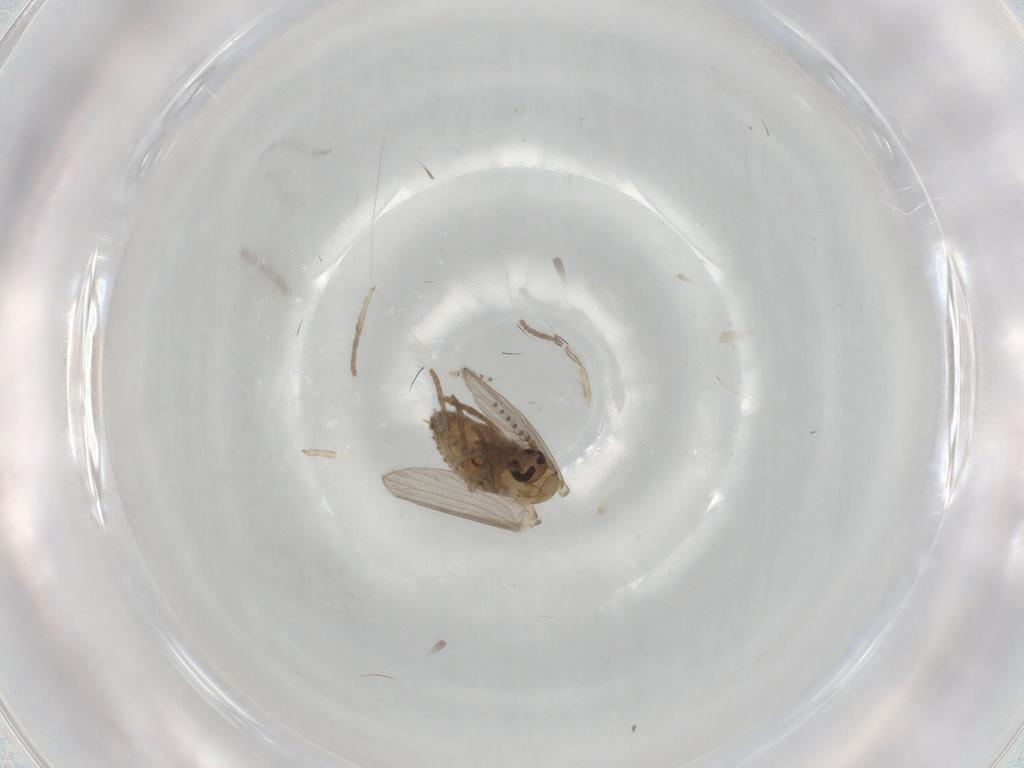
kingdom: Animalia
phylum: Arthropoda
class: Insecta
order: Diptera
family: Psychodidae
